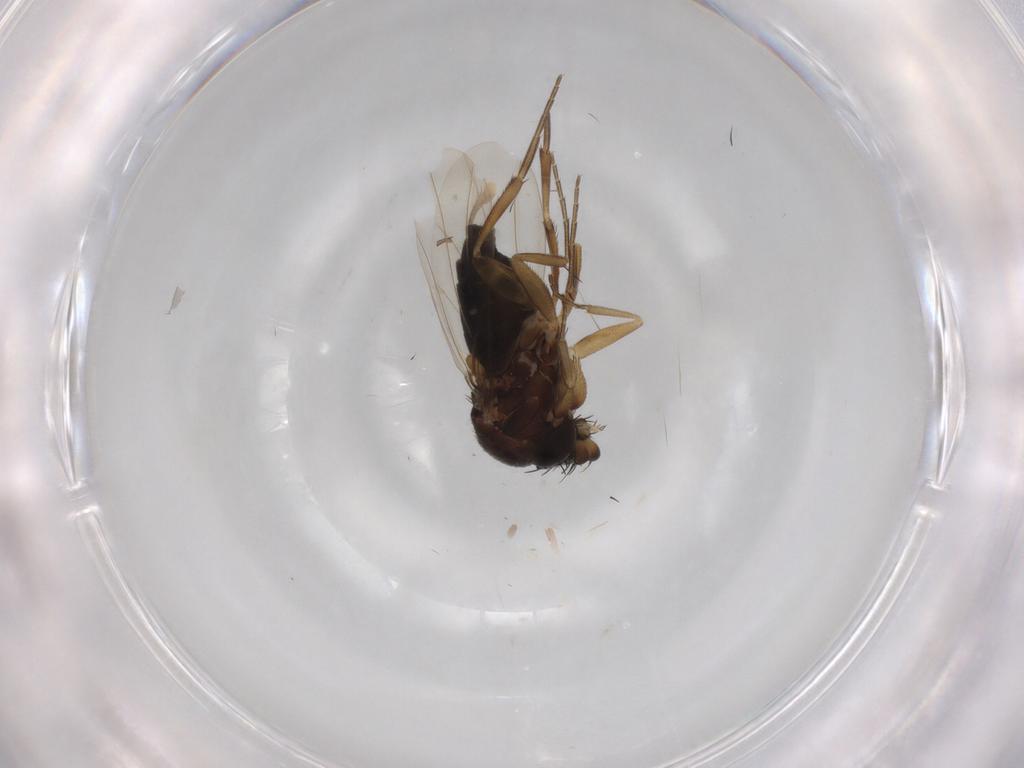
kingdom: Animalia
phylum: Arthropoda
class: Insecta
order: Diptera
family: Phoridae
